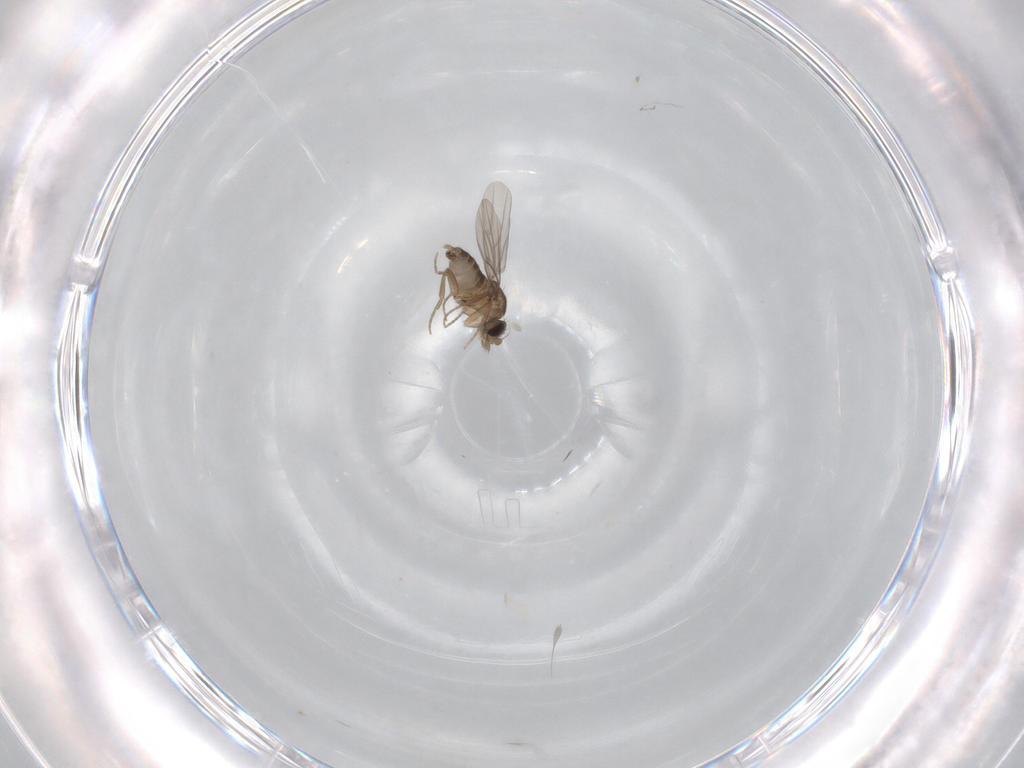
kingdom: Animalia
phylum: Arthropoda
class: Insecta
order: Diptera
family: Phoridae
